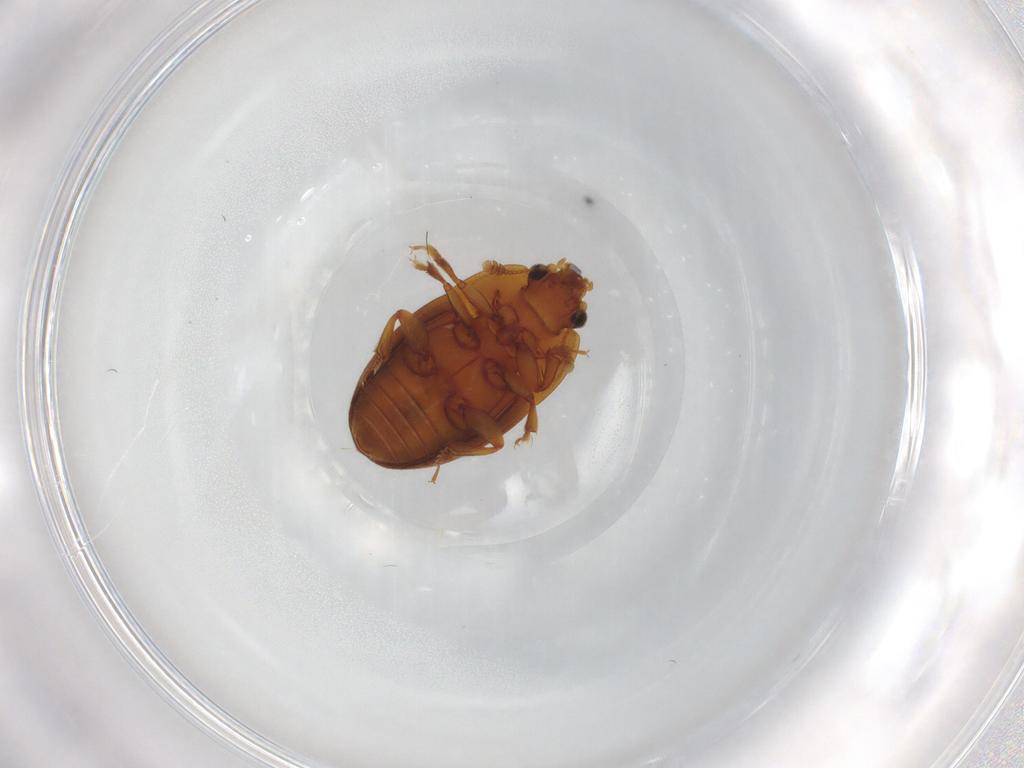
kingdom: Animalia
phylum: Arthropoda
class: Insecta
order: Coleoptera
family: Nitidulidae
